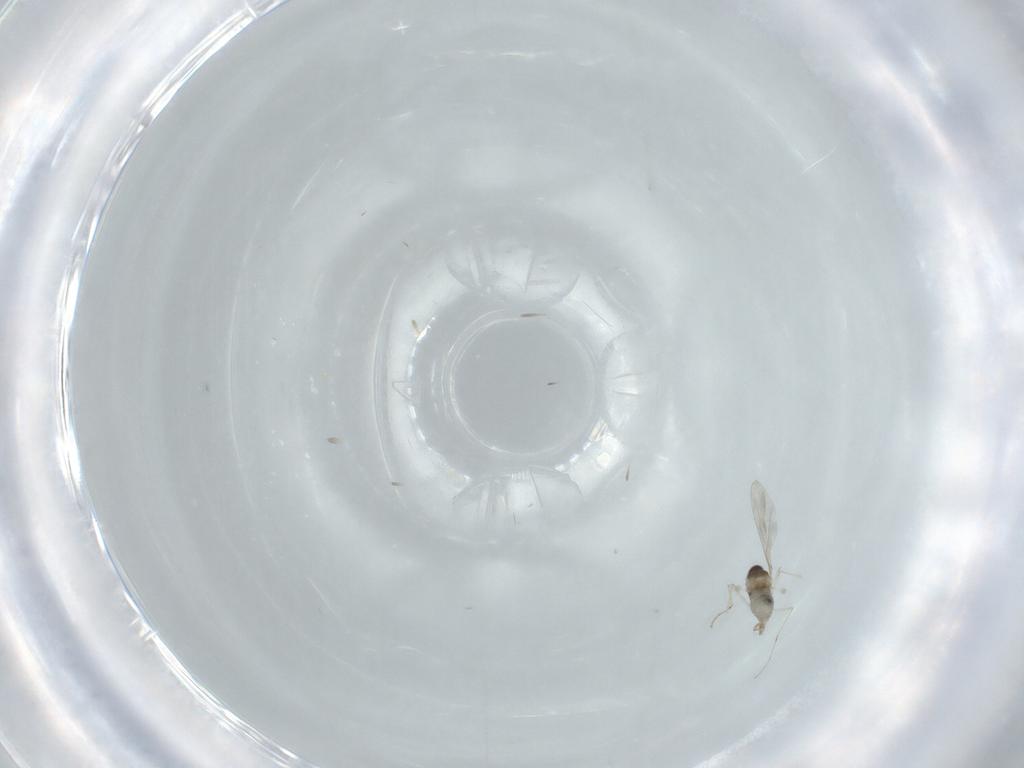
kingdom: Animalia
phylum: Arthropoda
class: Insecta
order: Diptera
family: Cecidomyiidae
